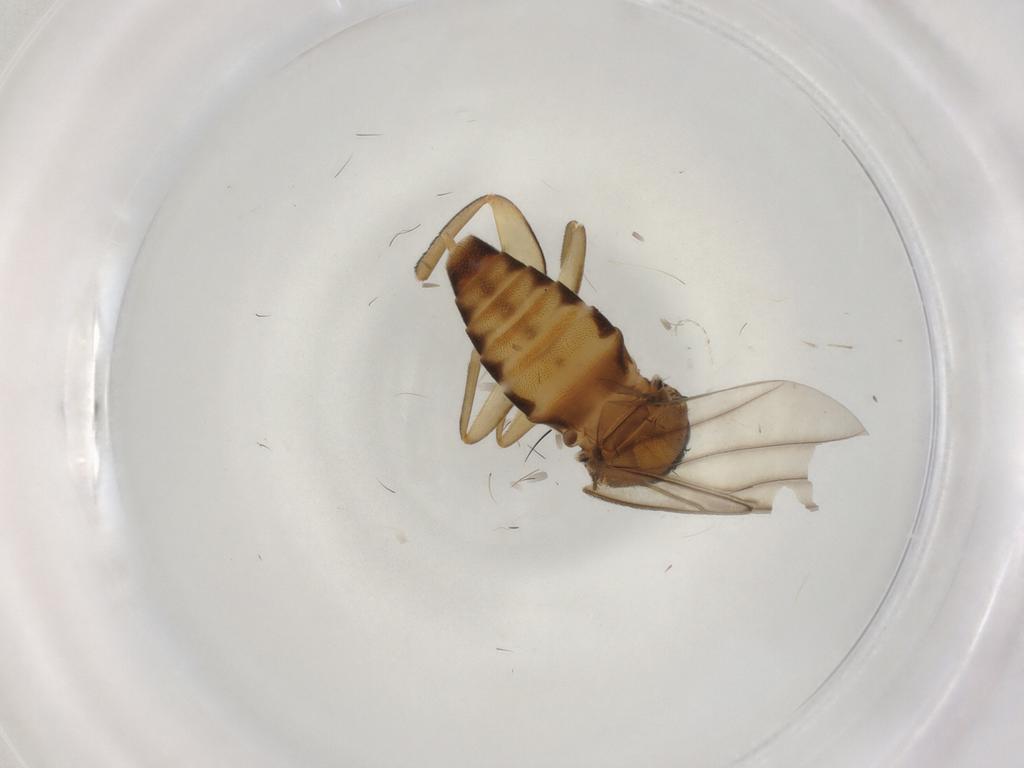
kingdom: Animalia
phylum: Arthropoda
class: Insecta
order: Diptera
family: Cecidomyiidae
